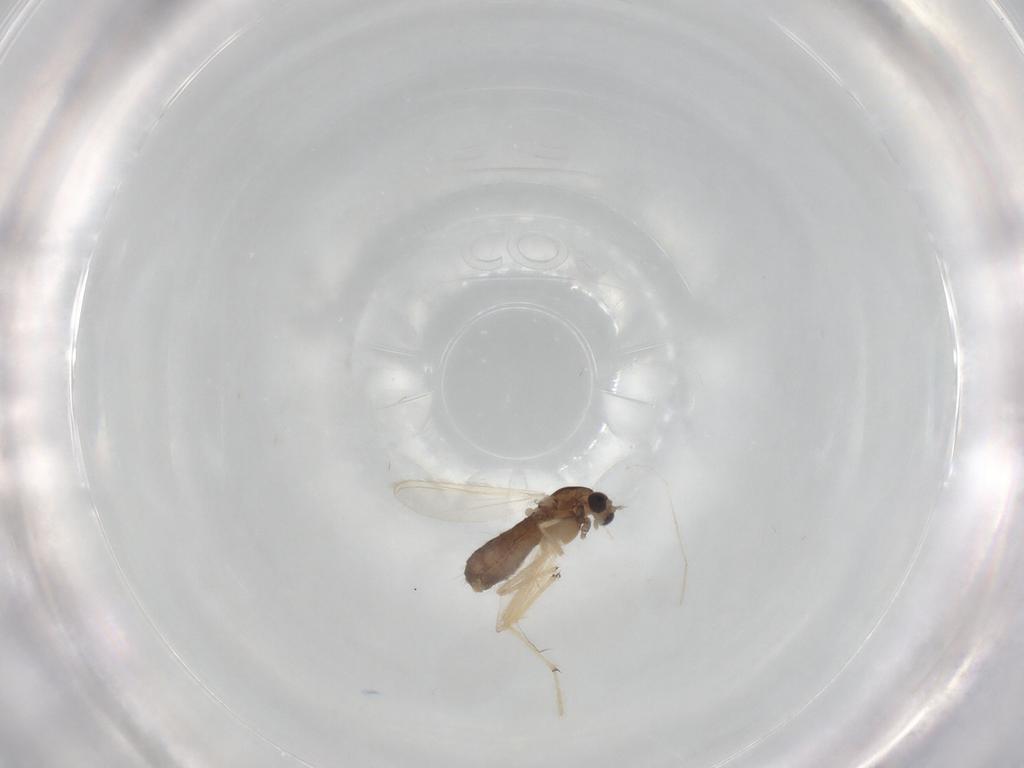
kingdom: Animalia
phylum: Arthropoda
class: Insecta
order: Diptera
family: Chironomidae
